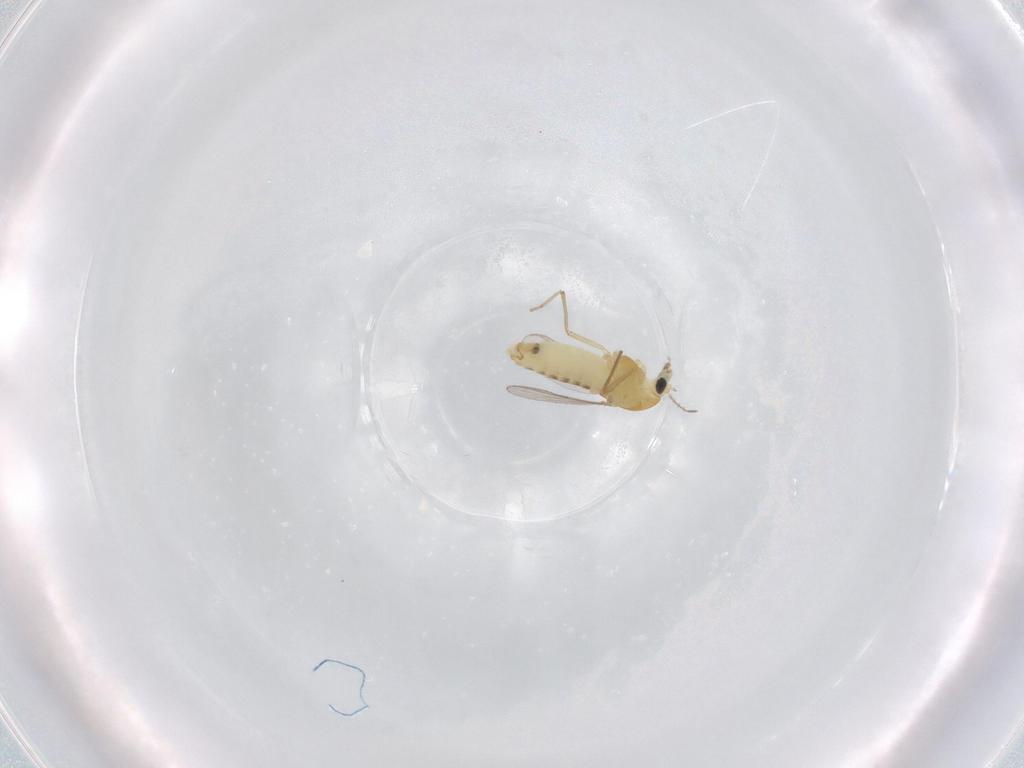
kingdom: Animalia
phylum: Arthropoda
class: Insecta
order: Diptera
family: Chironomidae
